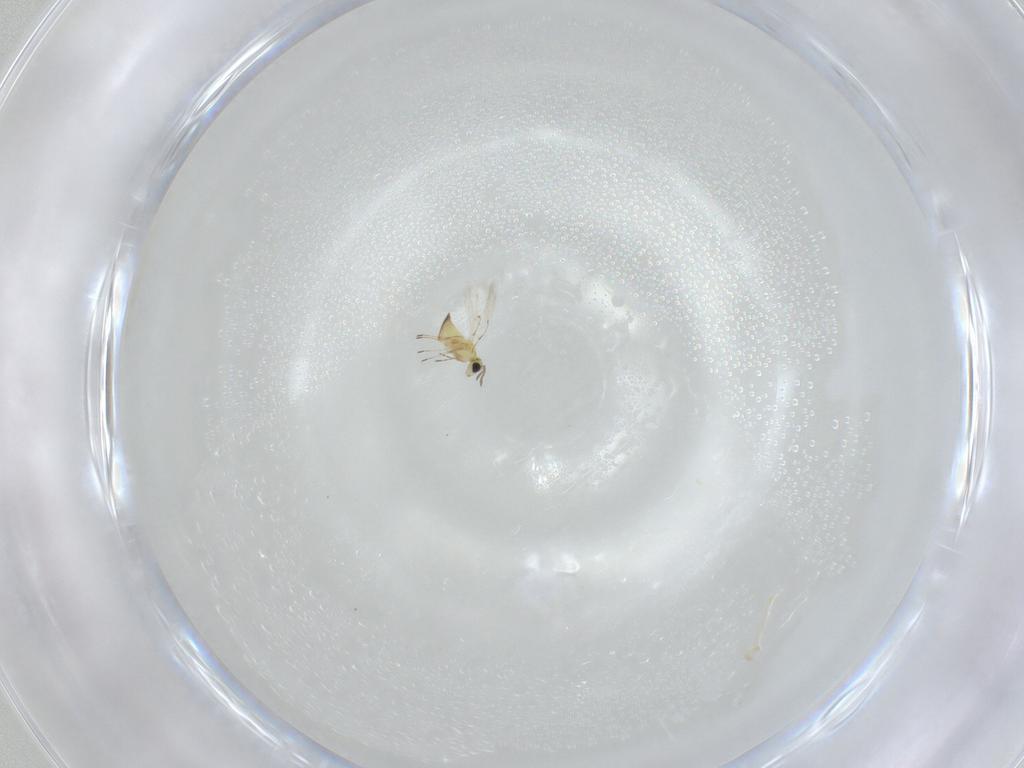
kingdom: Animalia
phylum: Arthropoda
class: Insecta
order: Hymenoptera
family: Trichogrammatidae
